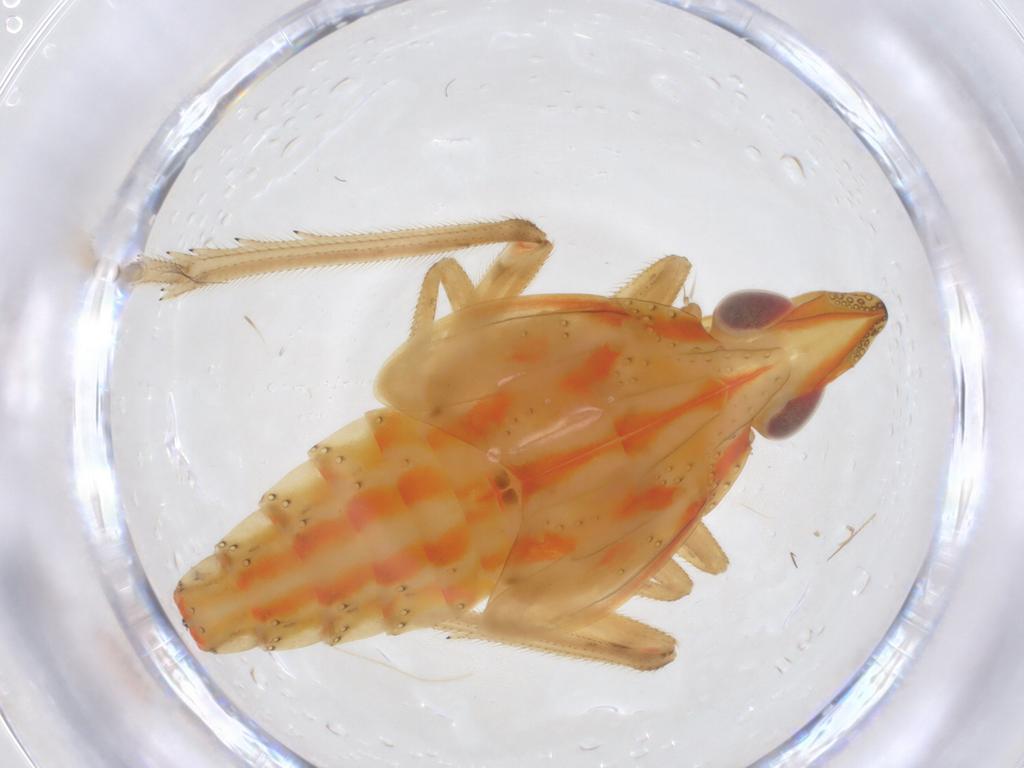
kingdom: Animalia
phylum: Arthropoda
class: Insecta
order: Hemiptera
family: Tropiduchidae
